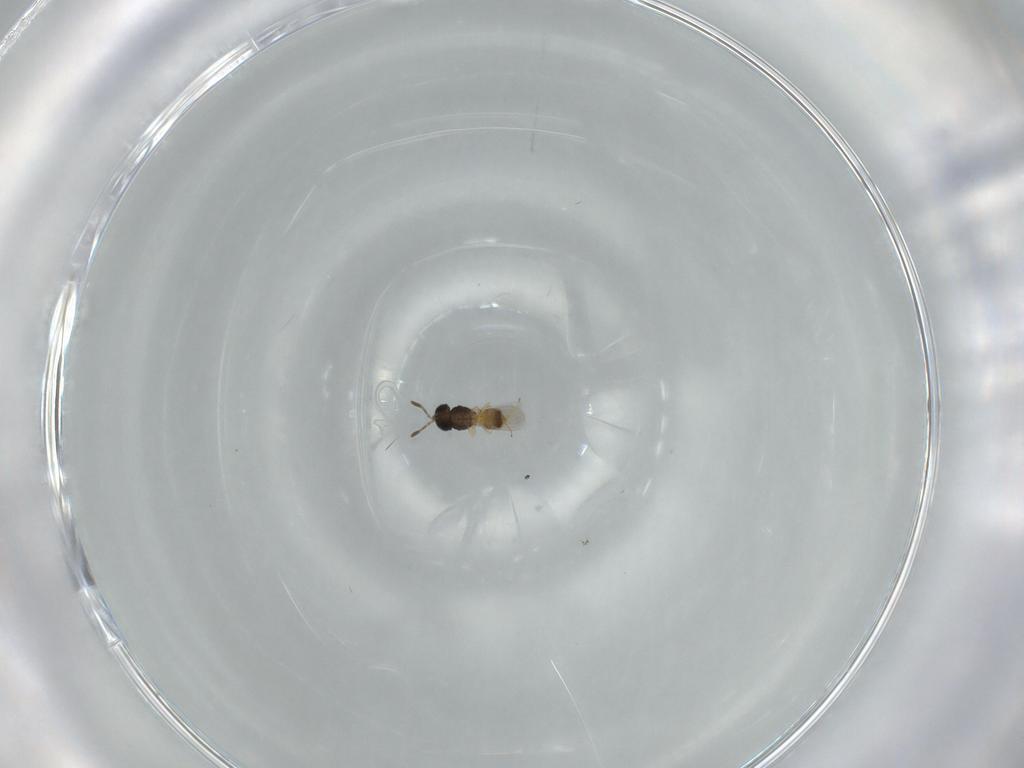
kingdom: Animalia
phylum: Arthropoda
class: Insecta
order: Hymenoptera
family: Scelionidae
